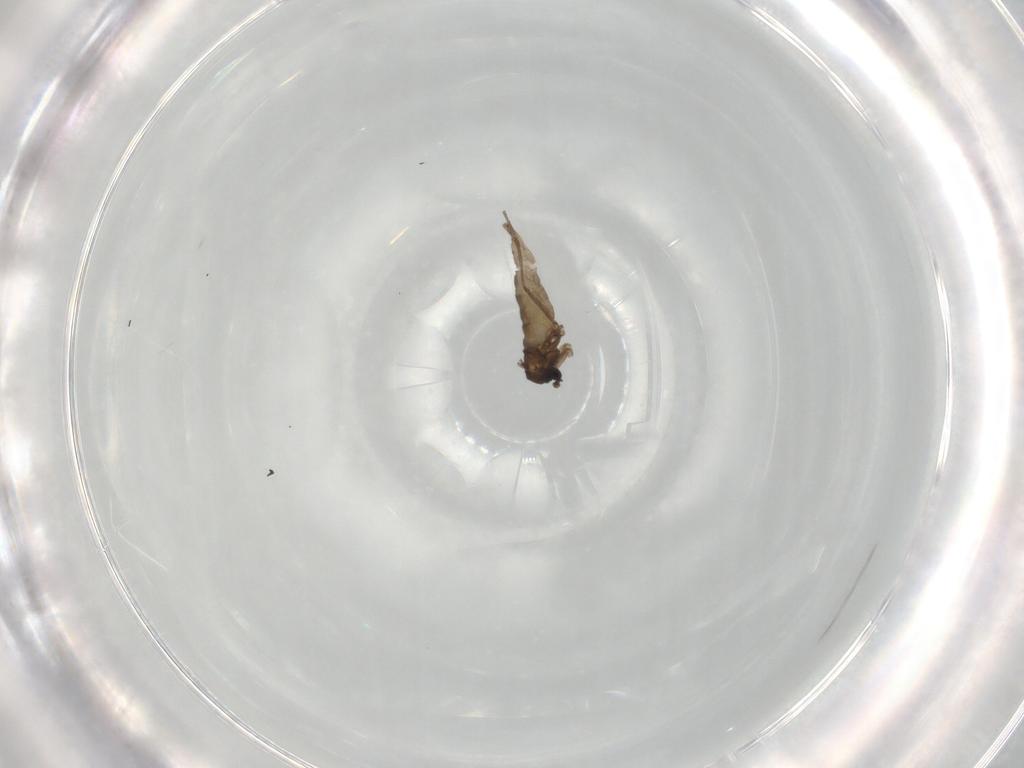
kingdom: Animalia
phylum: Arthropoda
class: Insecta
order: Diptera
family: Sciaridae
